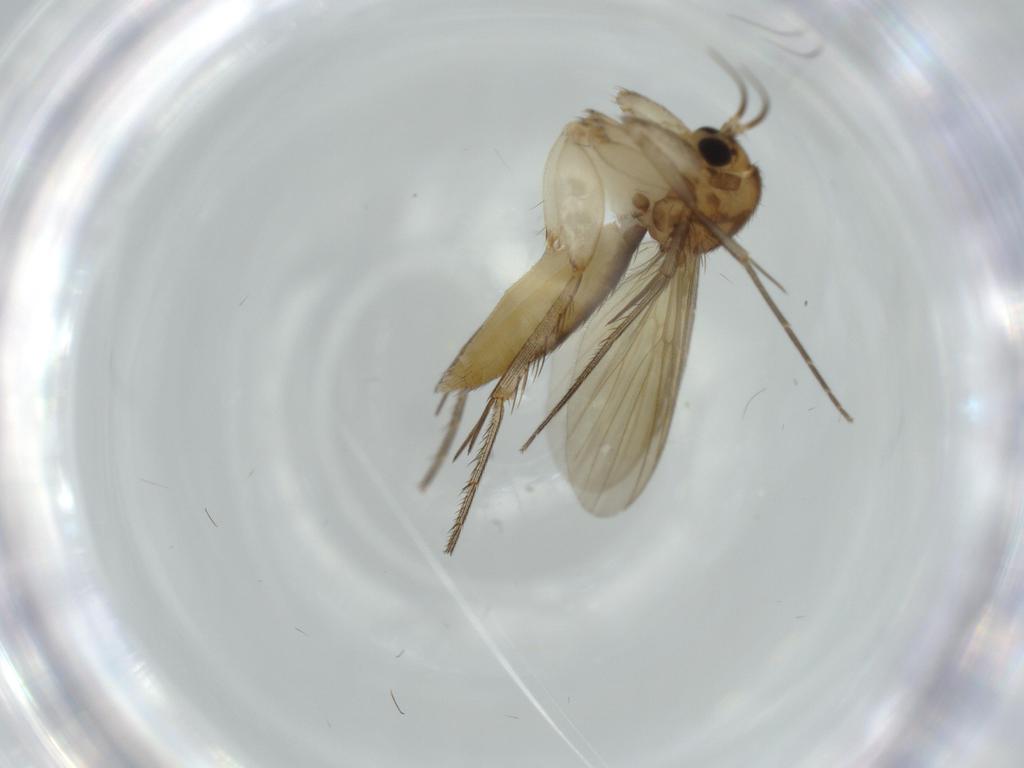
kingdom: Animalia
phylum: Arthropoda
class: Insecta
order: Diptera
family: Mycetophilidae
